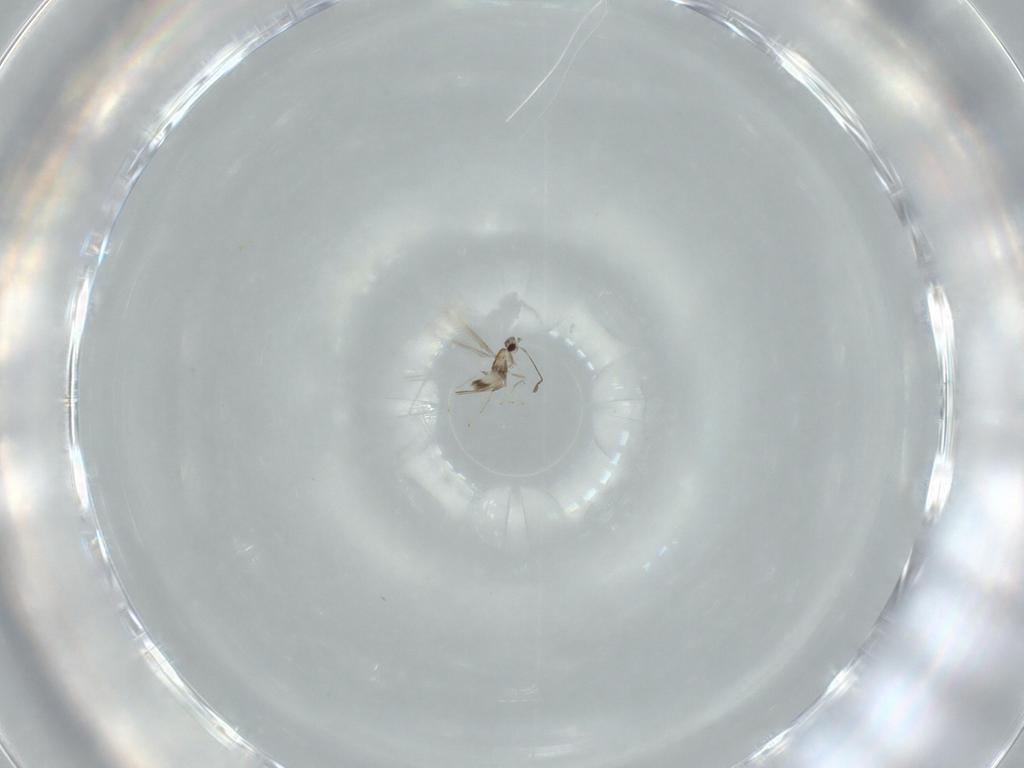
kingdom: Animalia
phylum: Arthropoda
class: Insecta
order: Hymenoptera
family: Mymaridae
